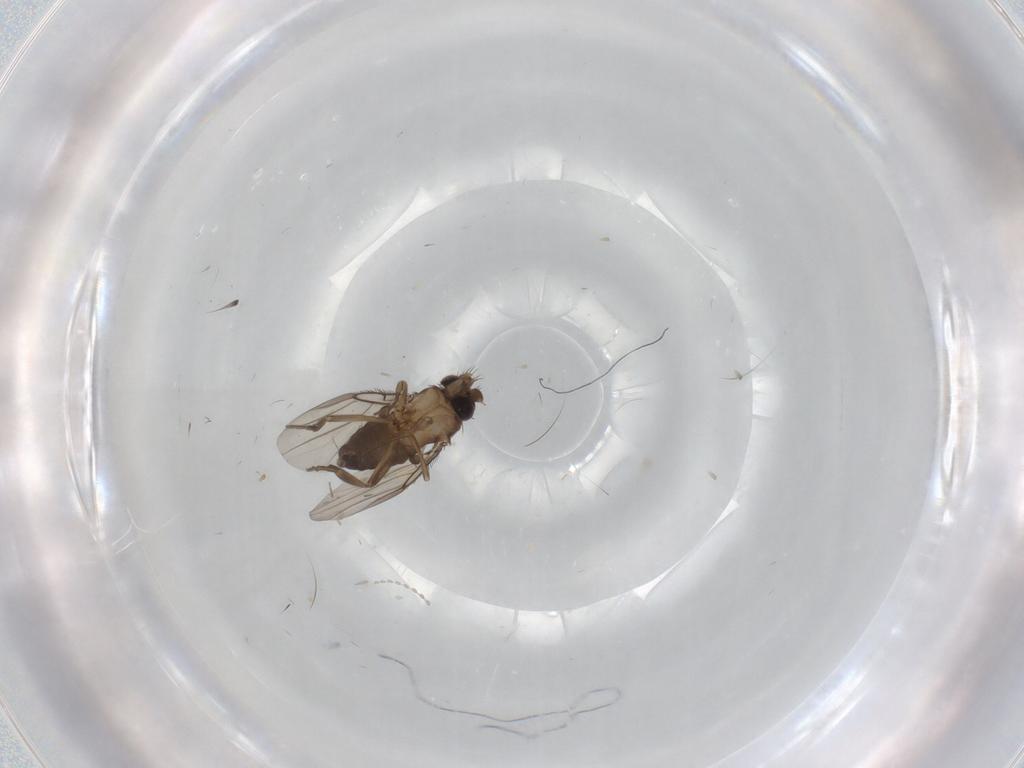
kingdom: Animalia
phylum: Arthropoda
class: Insecta
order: Diptera
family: Cecidomyiidae
